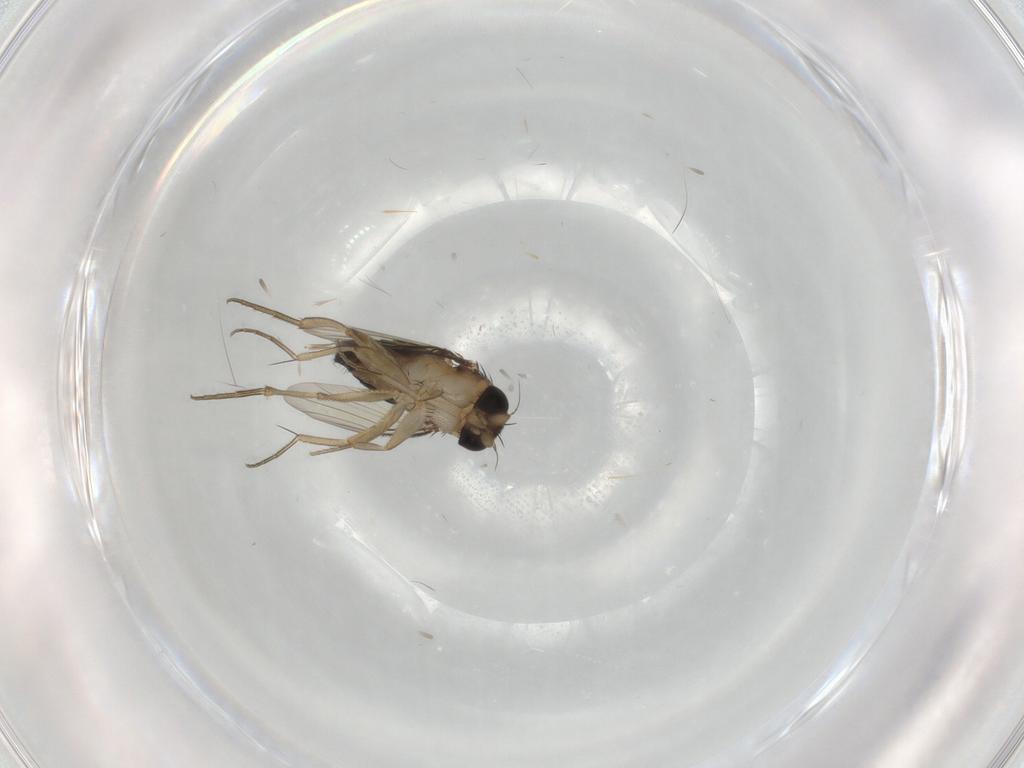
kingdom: Animalia
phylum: Arthropoda
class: Insecta
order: Diptera
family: Phoridae
